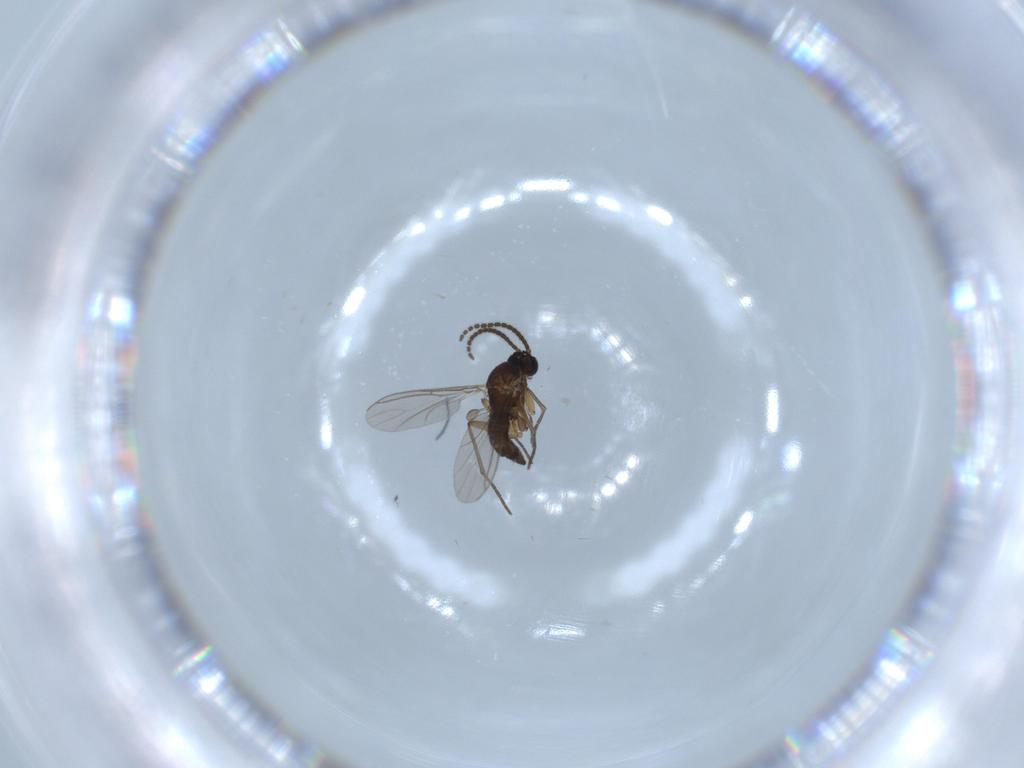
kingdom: Animalia
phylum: Arthropoda
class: Insecta
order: Diptera
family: Sciaridae
